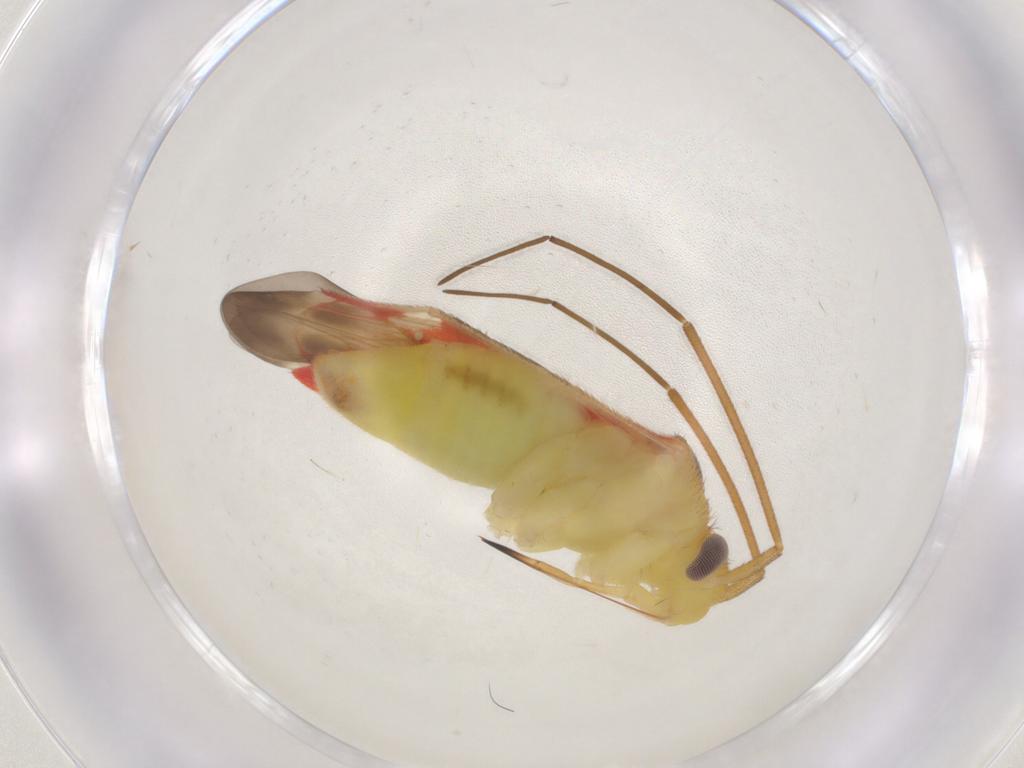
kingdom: Animalia
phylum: Arthropoda
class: Insecta
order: Hemiptera
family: Miridae
